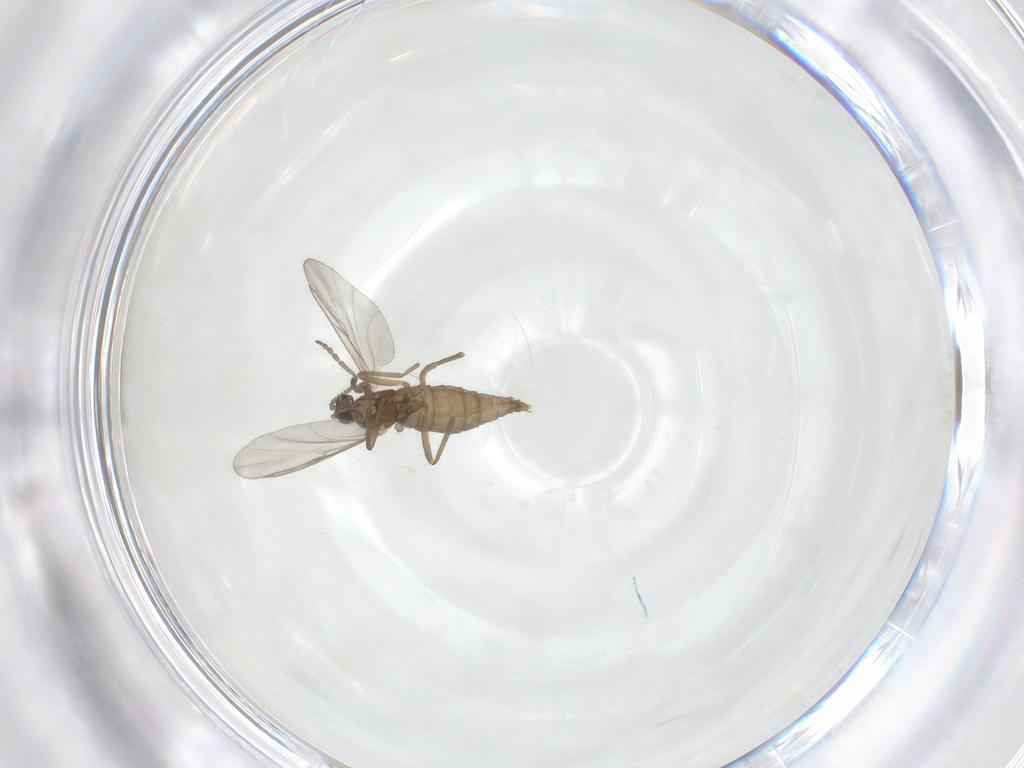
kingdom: Animalia
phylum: Arthropoda
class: Insecta
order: Diptera
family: Cecidomyiidae
